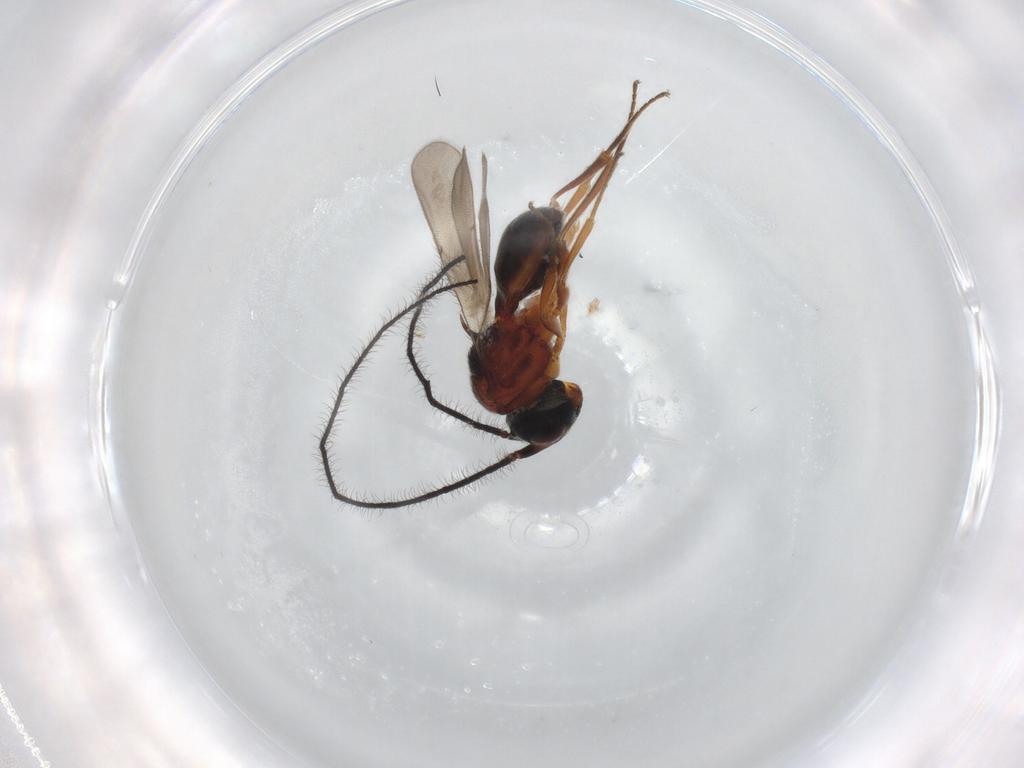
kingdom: Animalia
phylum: Arthropoda
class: Insecta
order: Hymenoptera
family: Scelionidae
